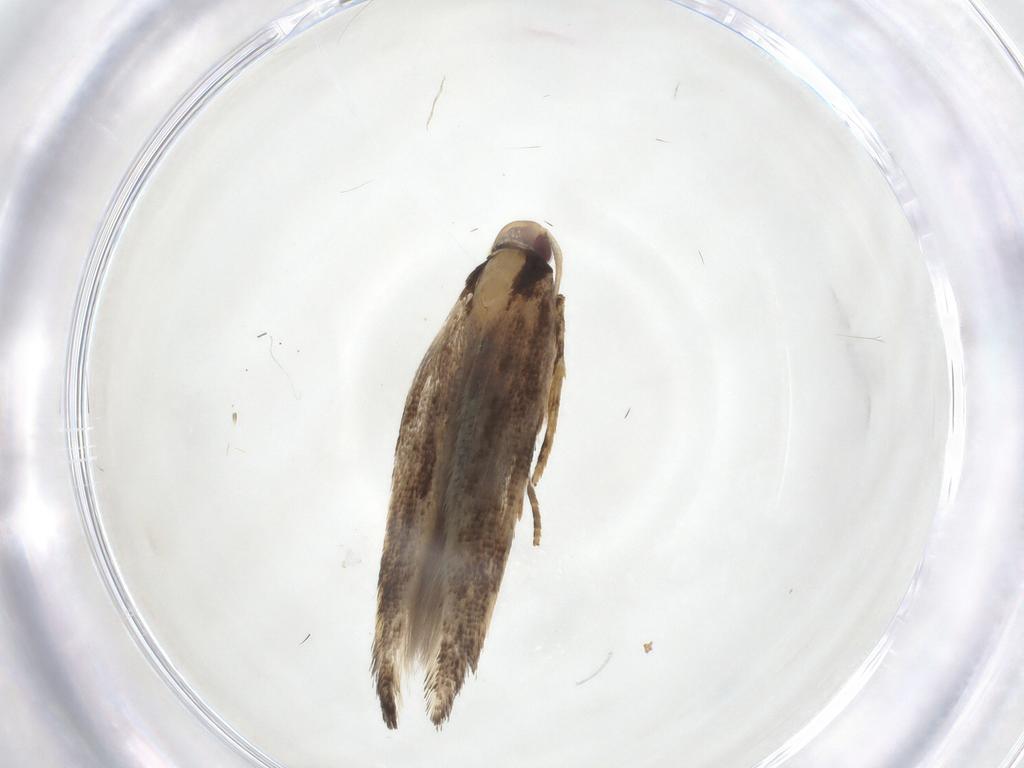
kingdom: Animalia
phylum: Arthropoda
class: Insecta
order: Lepidoptera
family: Cosmopterigidae
